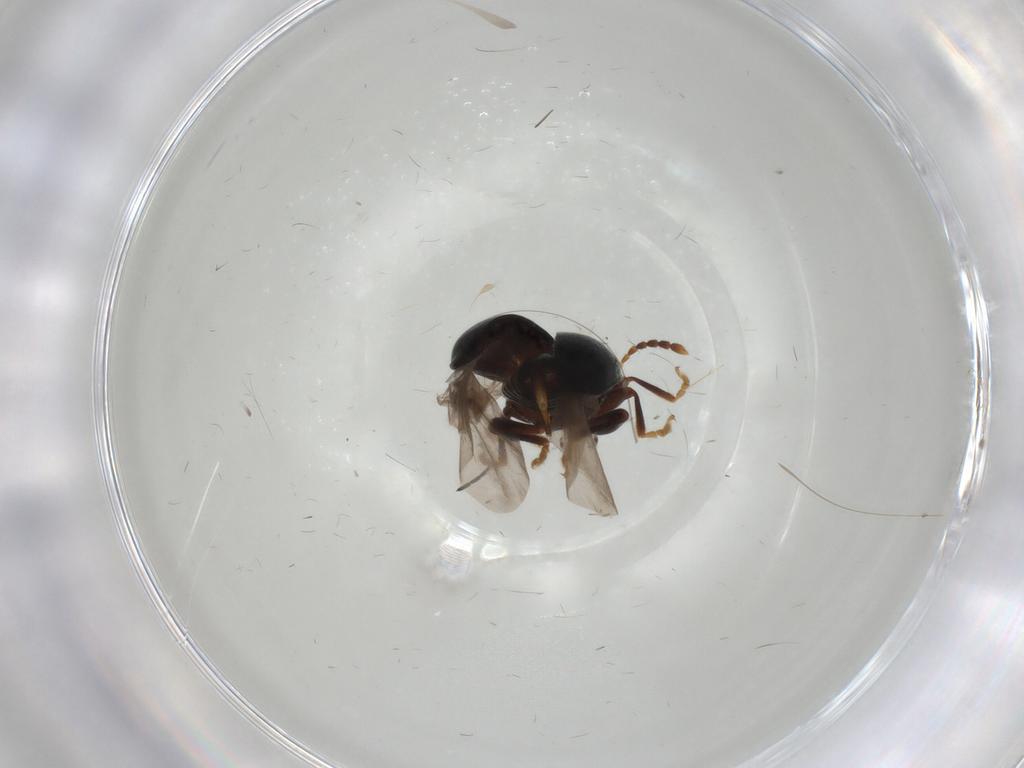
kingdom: Animalia
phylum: Arthropoda
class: Insecta
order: Coleoptera
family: Chrysomelidae
